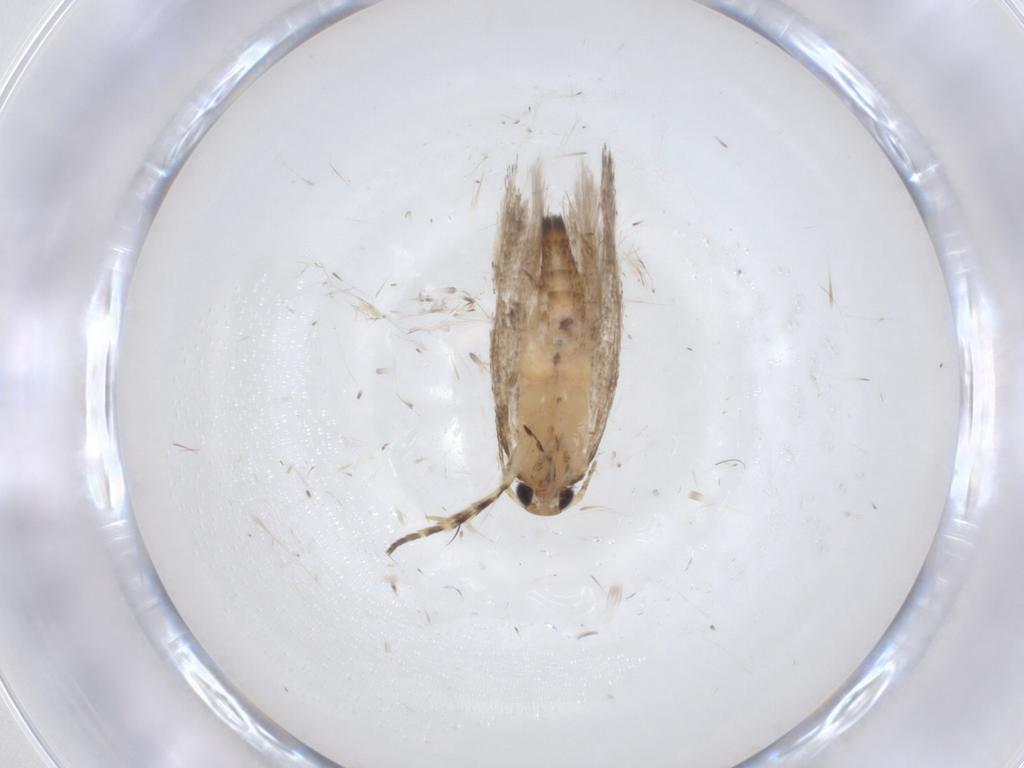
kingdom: Animalia
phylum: Arthropoda
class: Insecta
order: Lepidoptera
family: Gelechiidae
